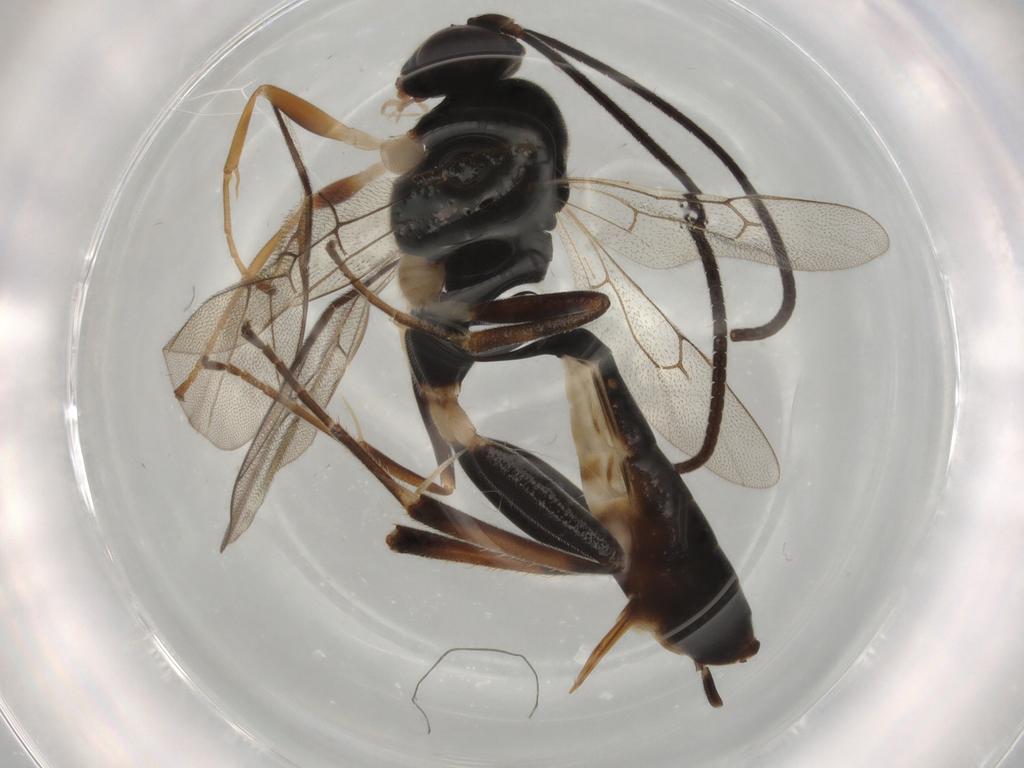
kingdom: Animalia
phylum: Arthropoda
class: Insecta
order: Hymenoptera
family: Ichneumonidae
